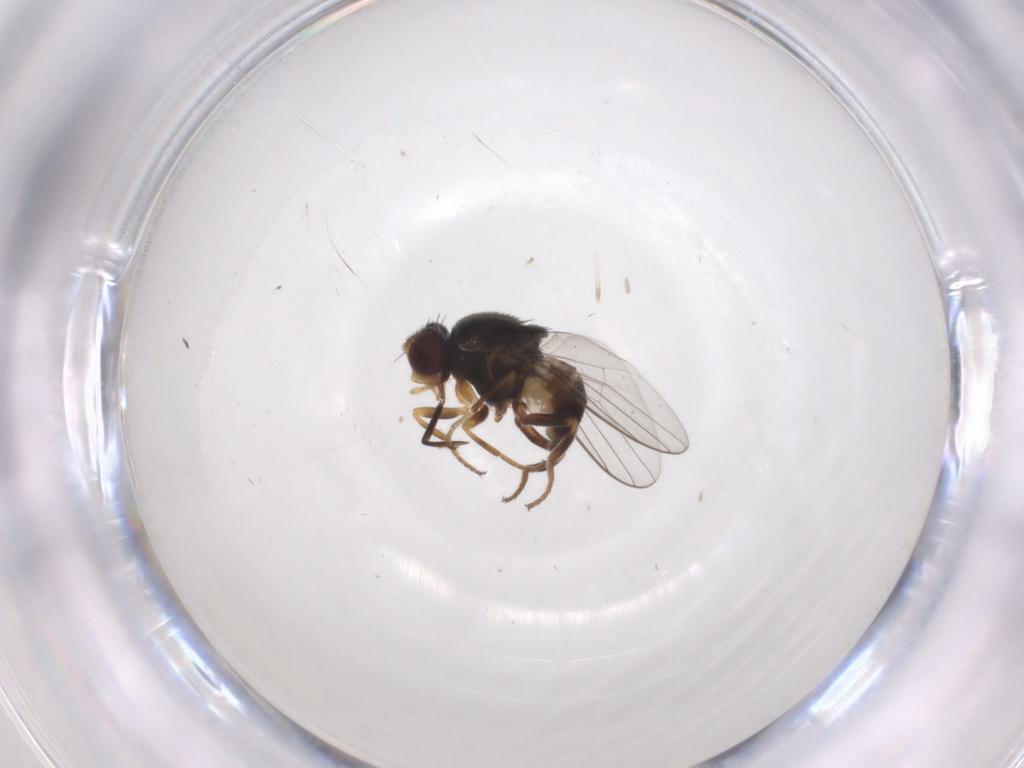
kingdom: Animalia
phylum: Arthropoda
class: Insecta
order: Diptera
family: Chloropidae
